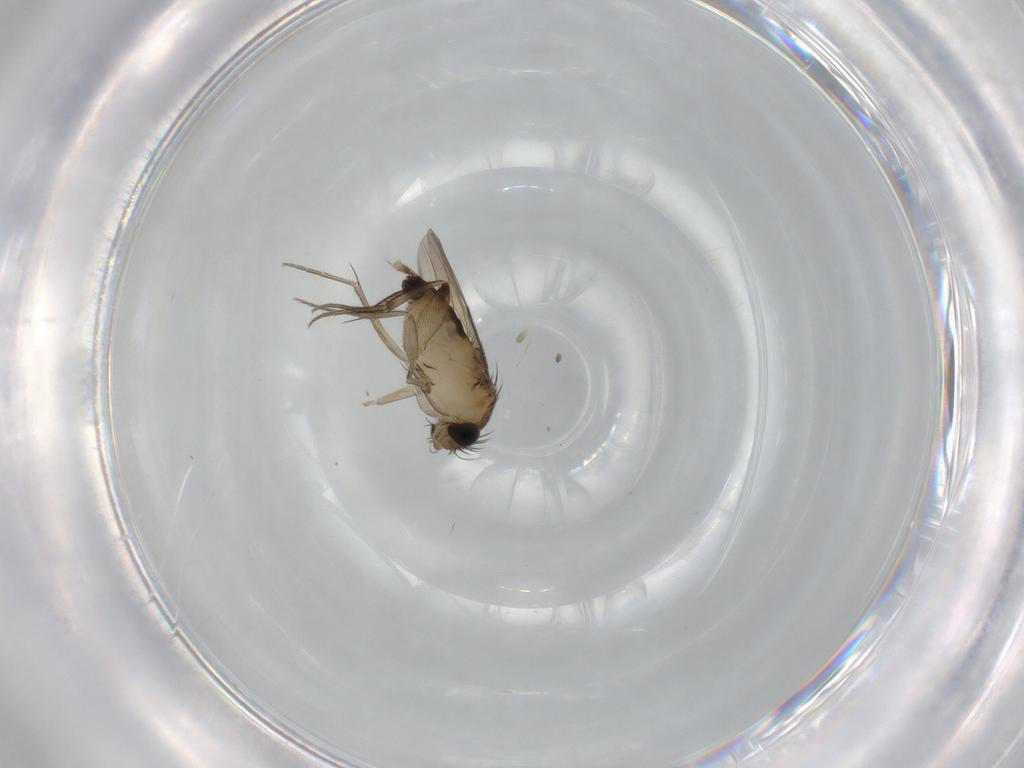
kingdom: Animalia
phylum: Arthropoda
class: Insecta
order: Diptera
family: Phoridae
